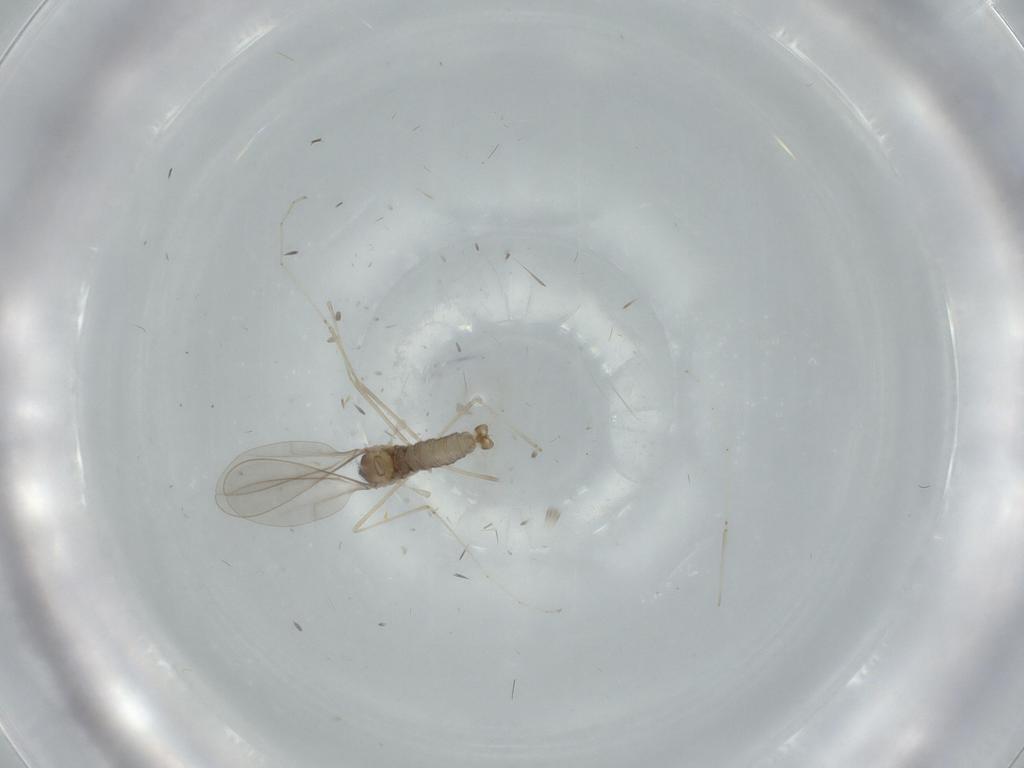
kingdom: Animalia
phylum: Arthropoda
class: Insecta
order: Diptera
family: Cecidomyiidae
